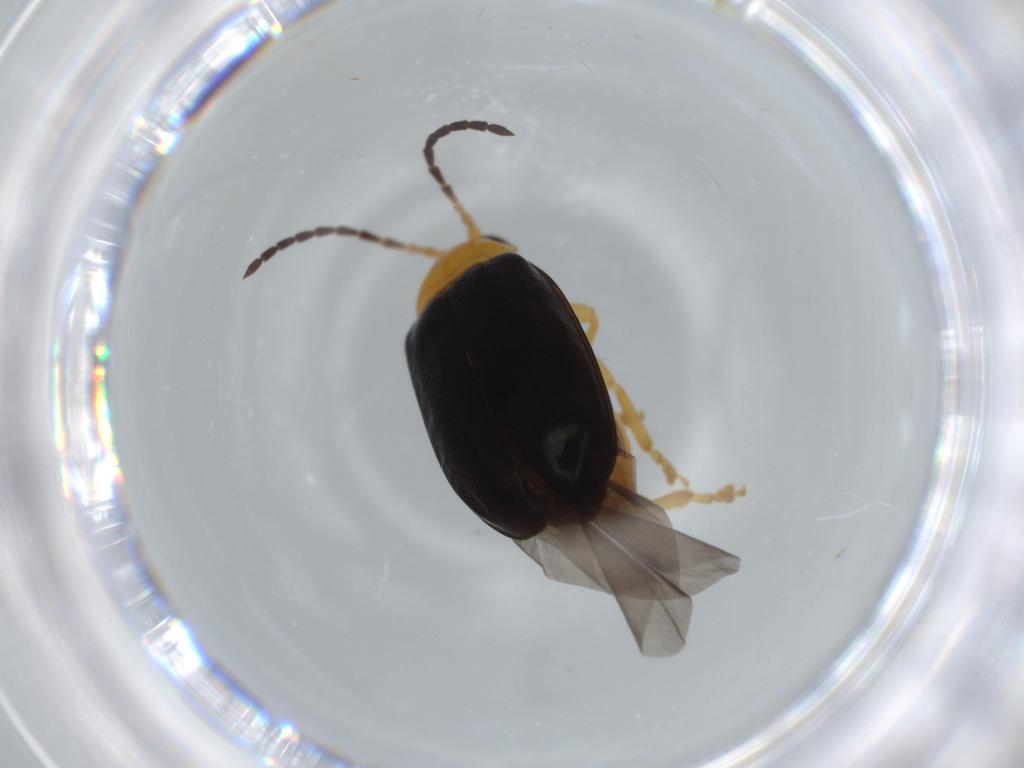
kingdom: Animalia
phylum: Arthropoda
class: Insecta
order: Coleoptera
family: Chrysomelidae
